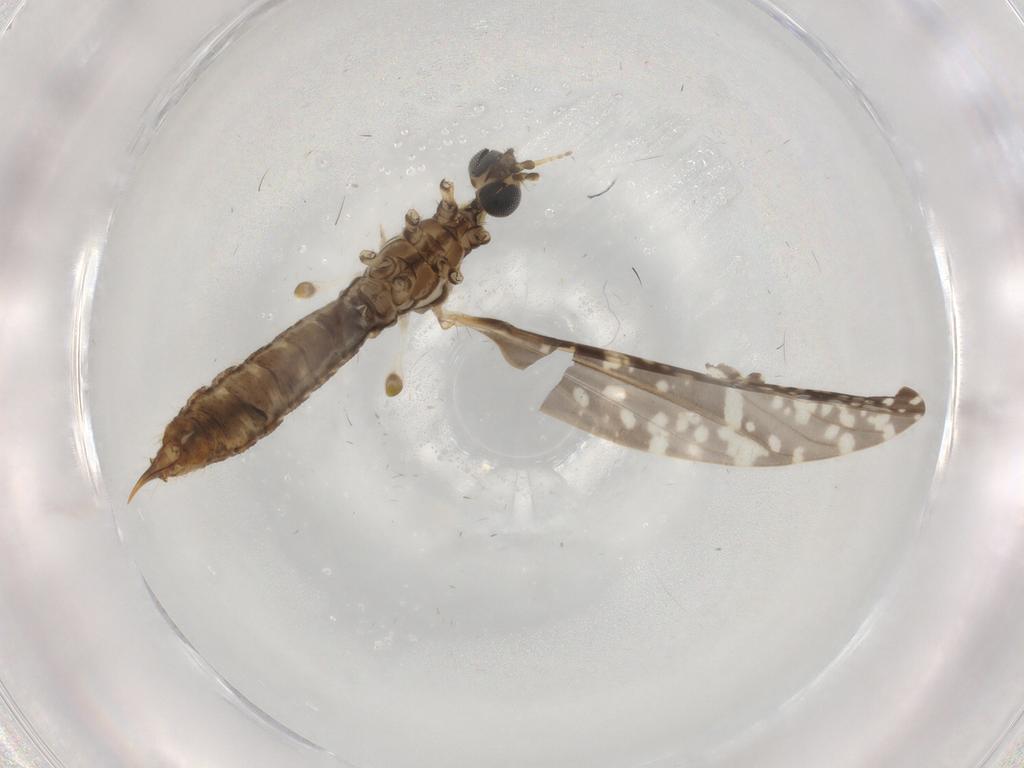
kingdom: Animalia
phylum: Arthropoda
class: Insecta
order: Diptera
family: Sciaridae
